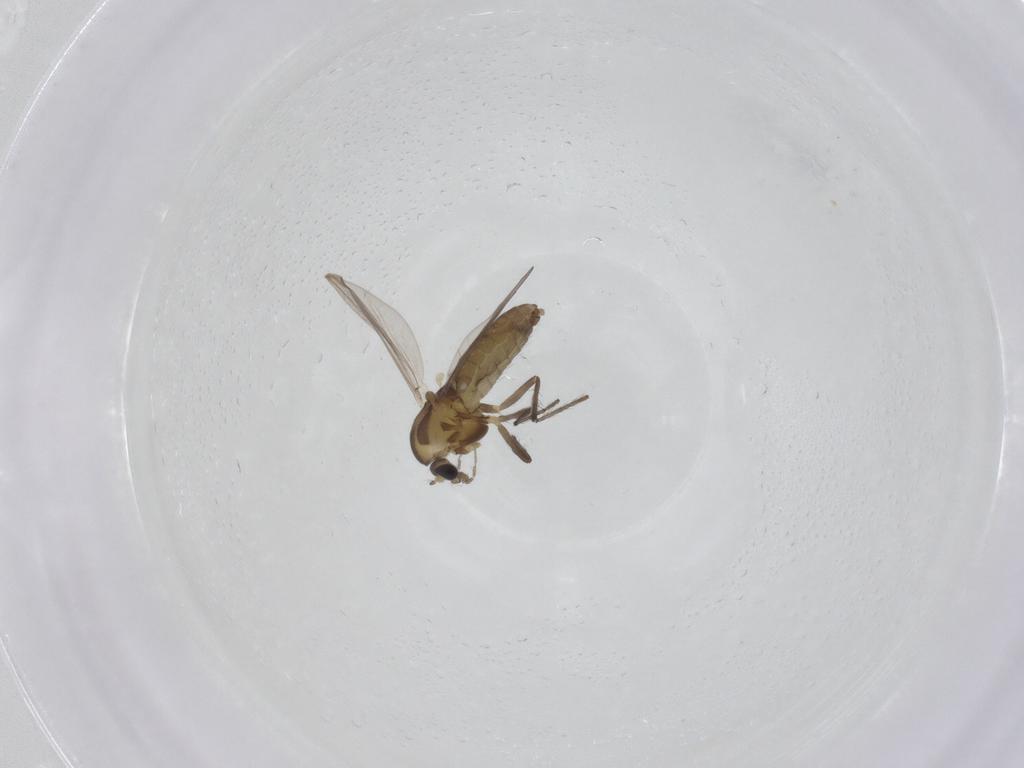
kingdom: Animalia
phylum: Arthropoda
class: Insecta
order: Diptera
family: Chironomidae
